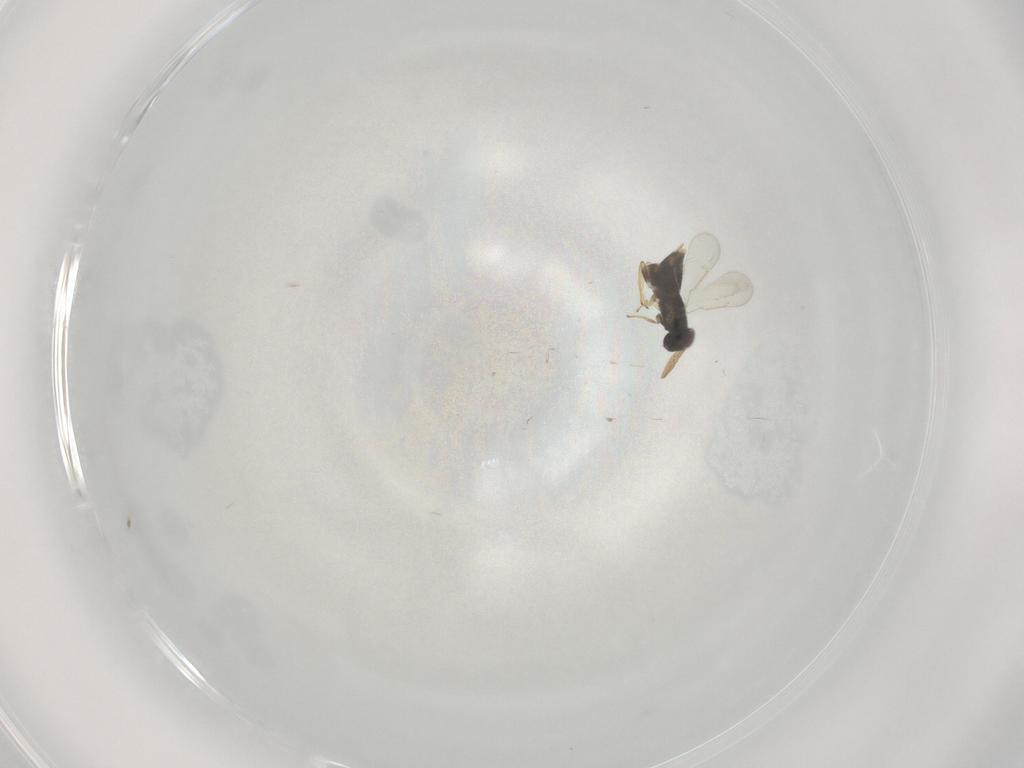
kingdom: Animalia
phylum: Arthropoda
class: Insecta
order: Hymenoptera
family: Aphelinidae
